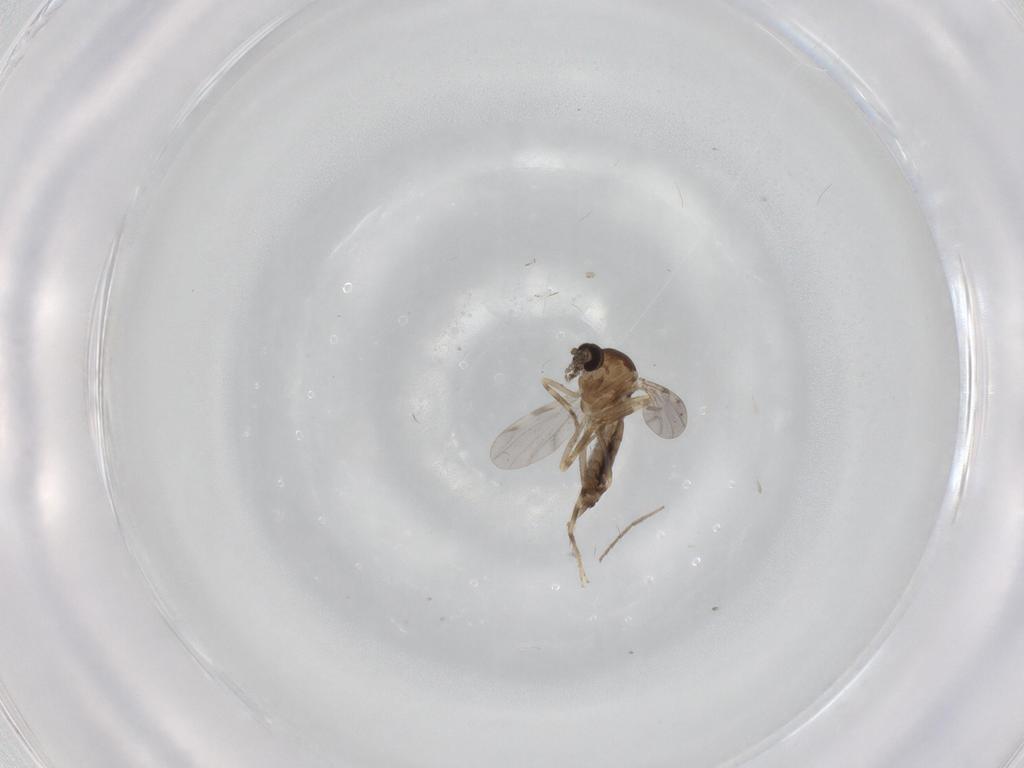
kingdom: Animalia
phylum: Arthropoda
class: Insecta
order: Diptera
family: Ceratopogonidae
